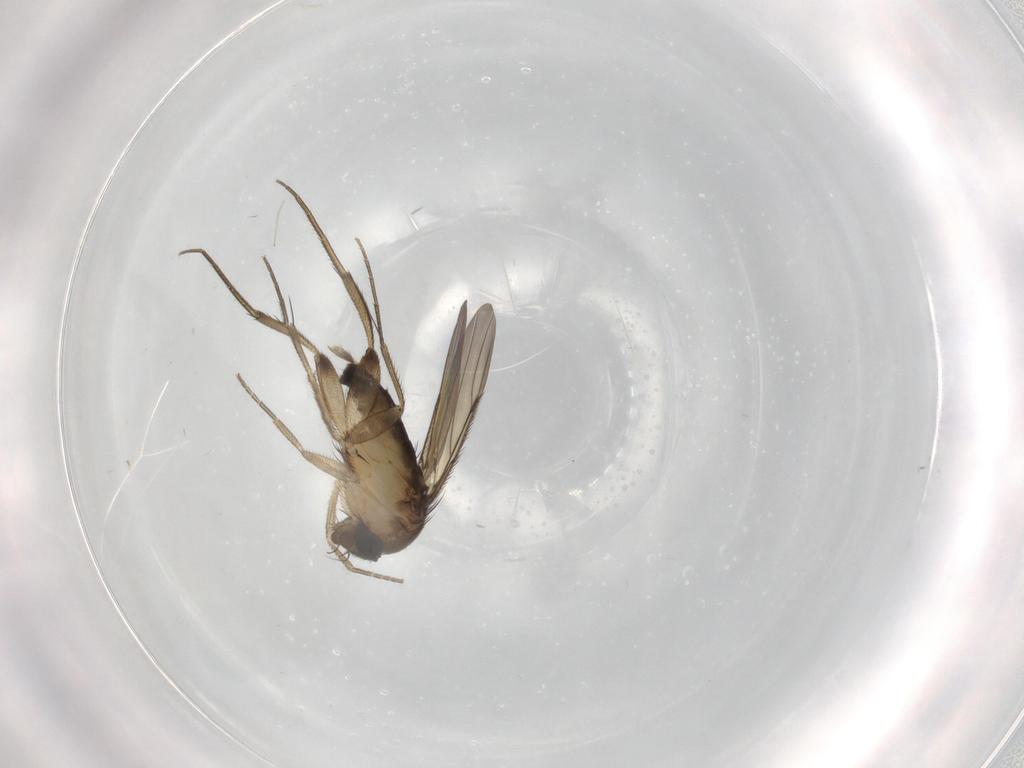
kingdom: Animalia
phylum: Arthropoda
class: Insecta
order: Diptera
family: Phoridae
